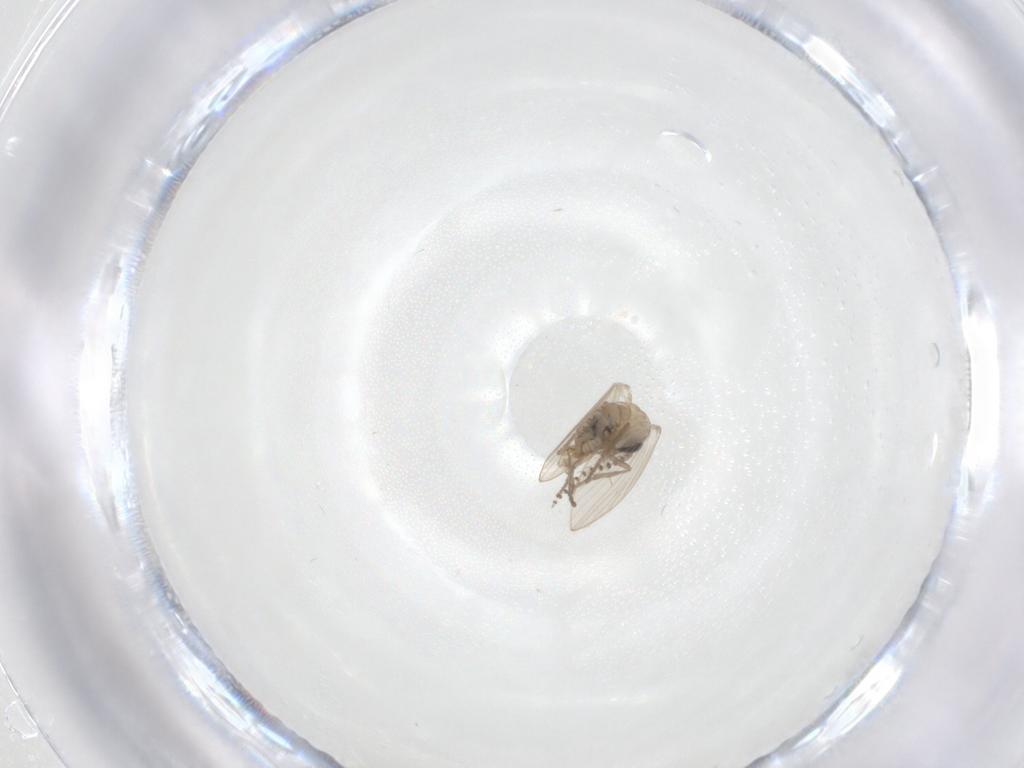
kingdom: Animalia
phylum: Arthropoda
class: Insecta
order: Diptera
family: Psychodidae
